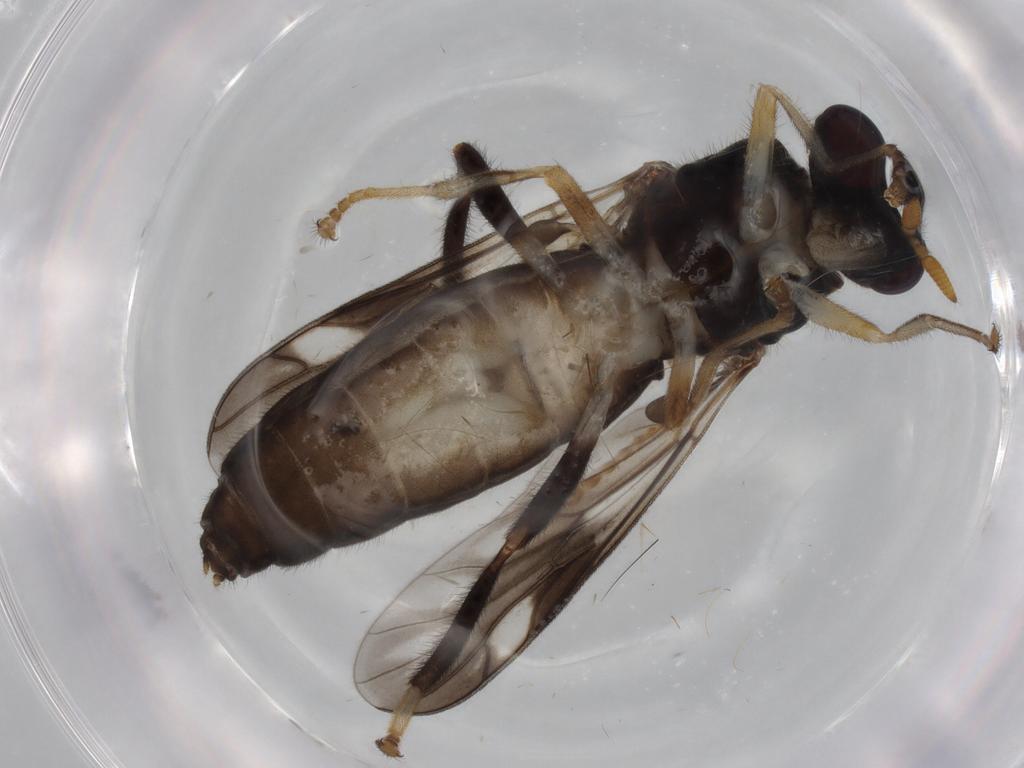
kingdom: Animalia
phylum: Arthropoda
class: Insecta
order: Diptera
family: Stratiomyidae
